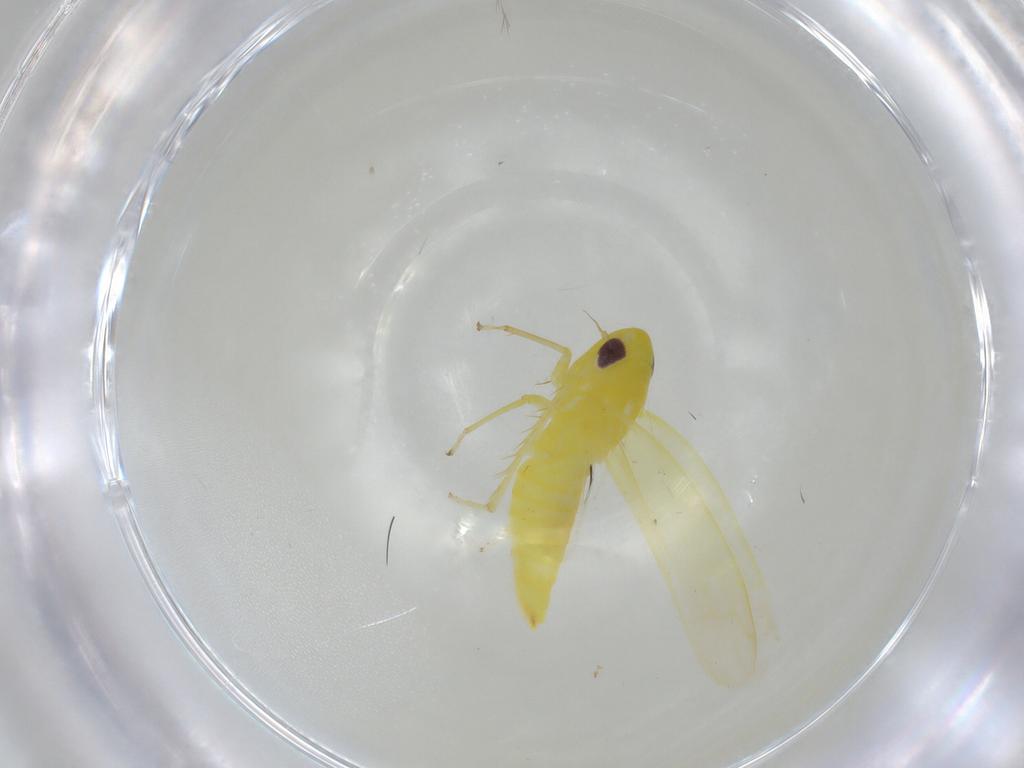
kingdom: Animalia
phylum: Arthropoda
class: Insecta
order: Hemiptera
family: Cicadellidae
